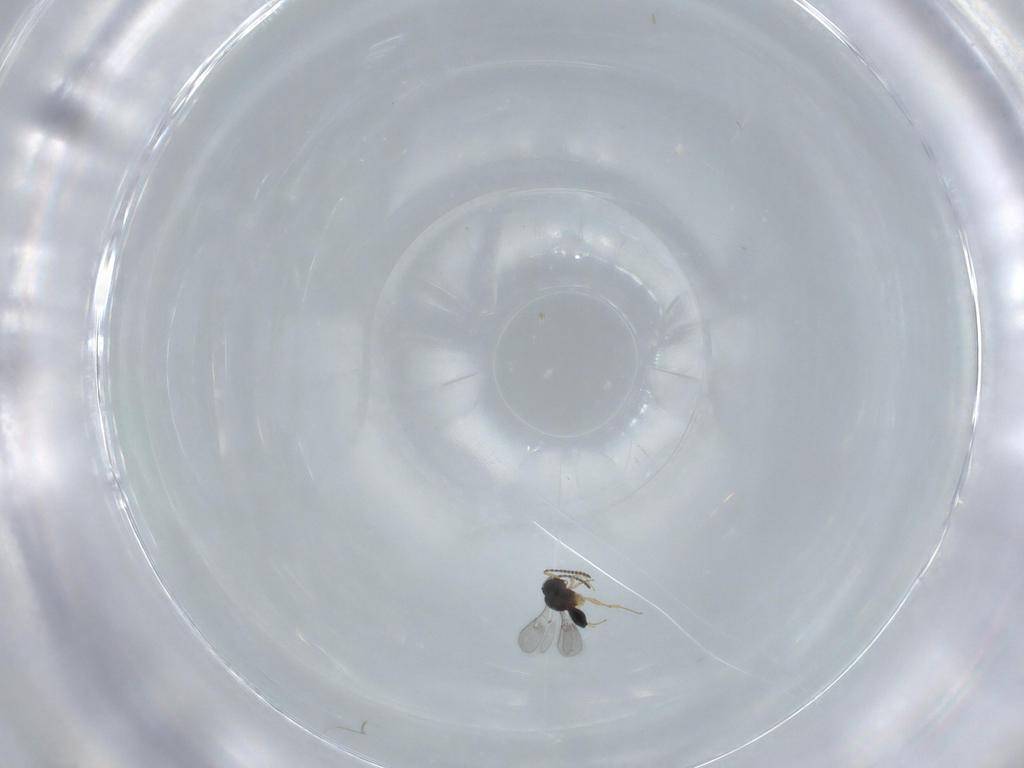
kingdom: Animalia
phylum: Arthropoda
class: Insecta
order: Hymenoptera
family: Scelionidae
